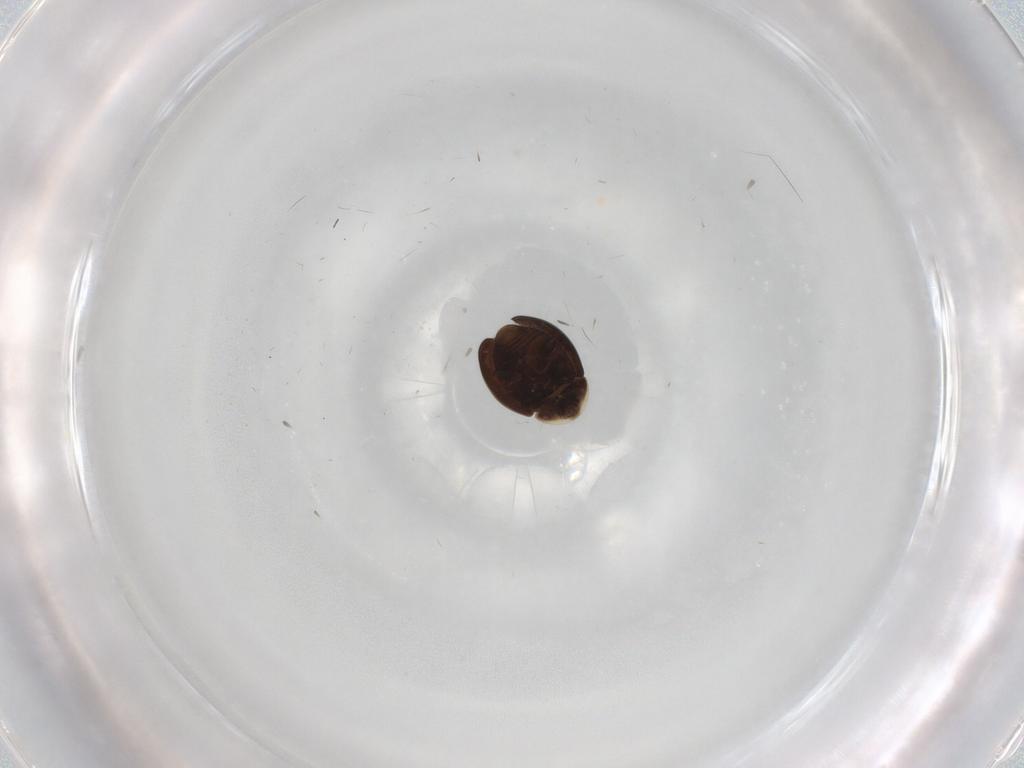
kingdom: Animalia
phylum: Arthropoda
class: Insecta
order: Coleoptera
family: Corylophidae
